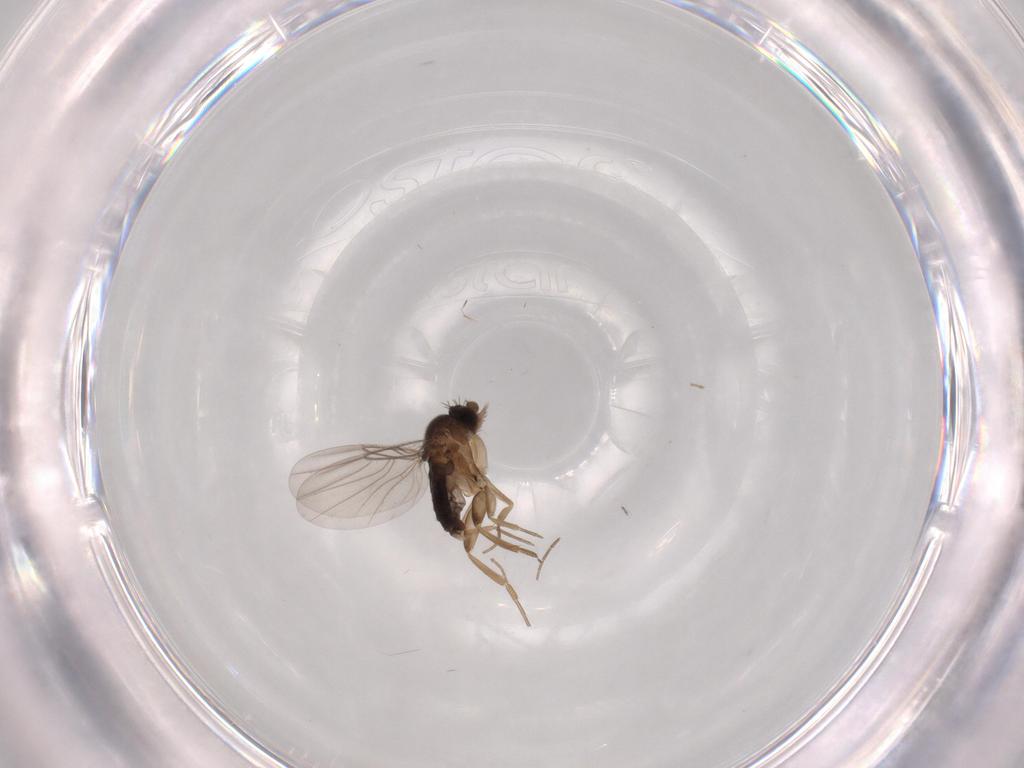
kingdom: Animalia
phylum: Arthropoda
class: Insecta
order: Diptera
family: Phoridae
